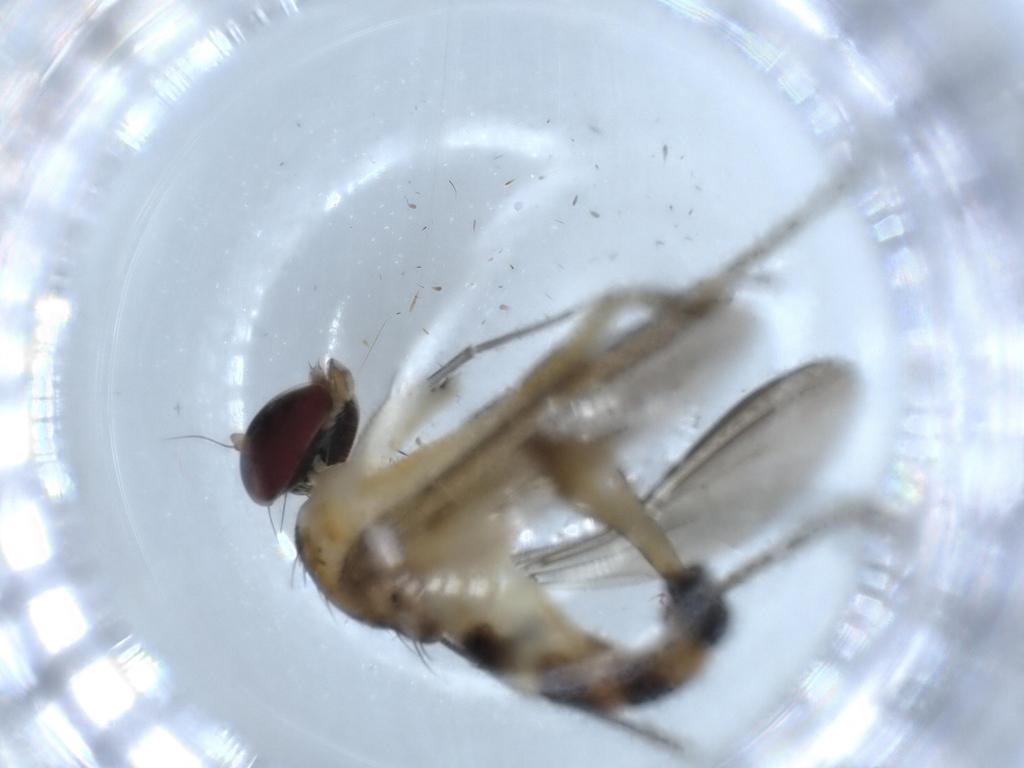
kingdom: Animalia
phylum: Arthropoda
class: Insecta
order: Diptera
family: Dolichopodidae
